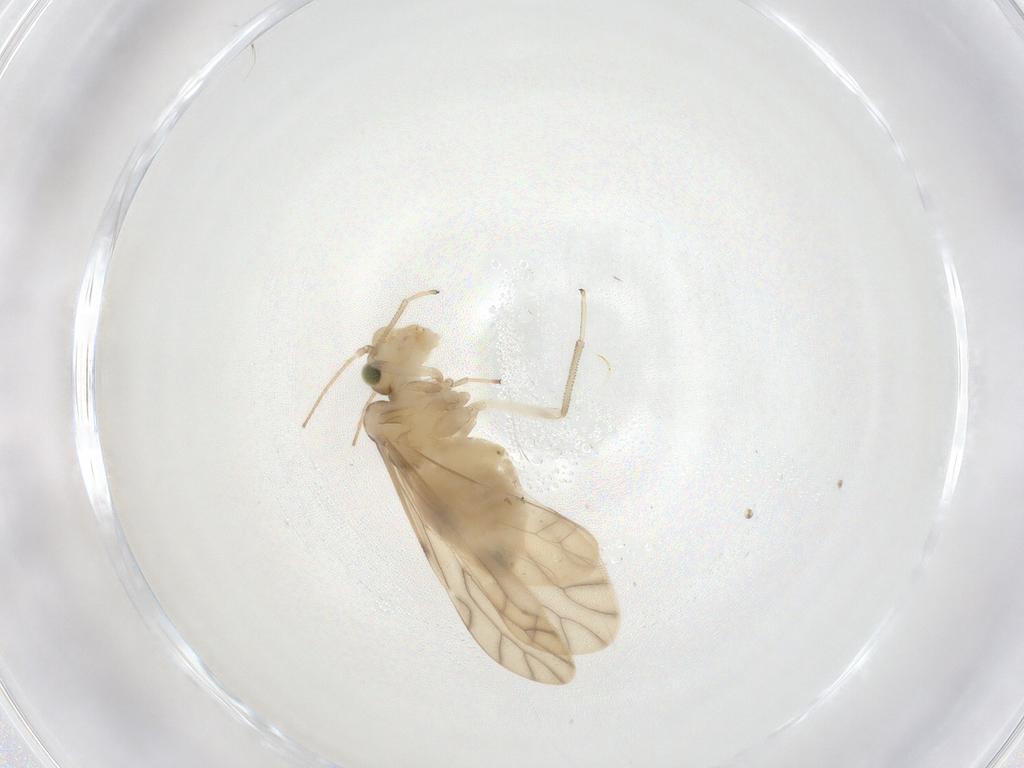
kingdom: Animalia
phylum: Arthropoda
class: Insecta
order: Psocodea
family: Caeciliusidae
